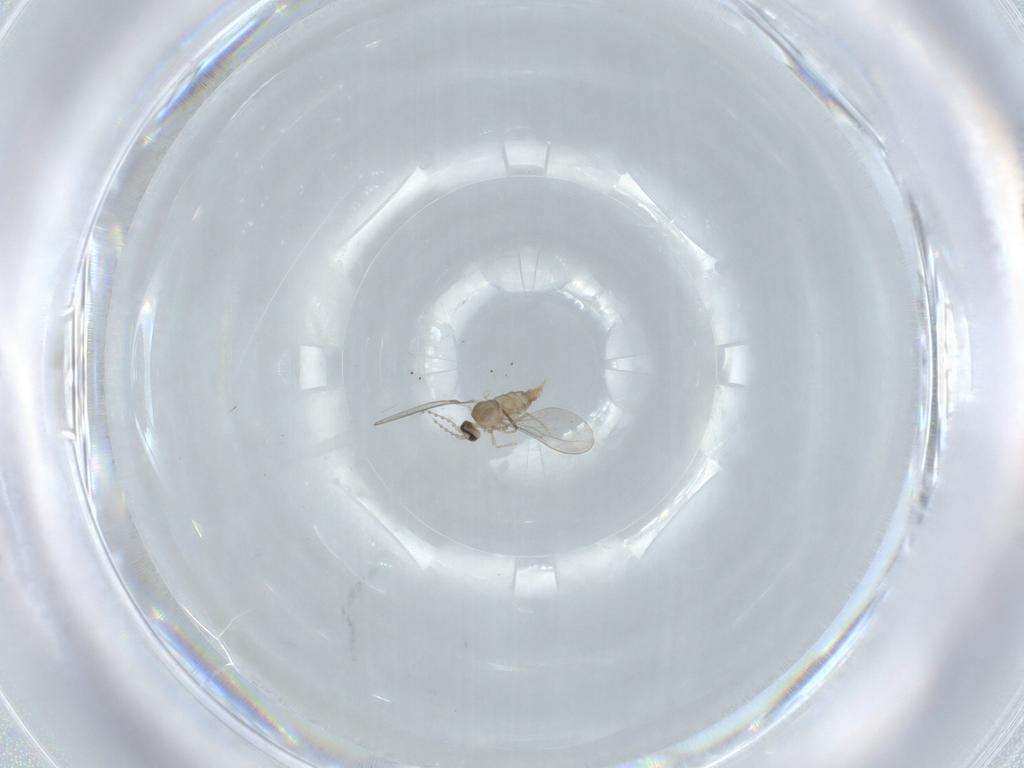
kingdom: Animalia
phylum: Arthropoda
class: Insecta
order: Diptera
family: Cecidomyiidae
